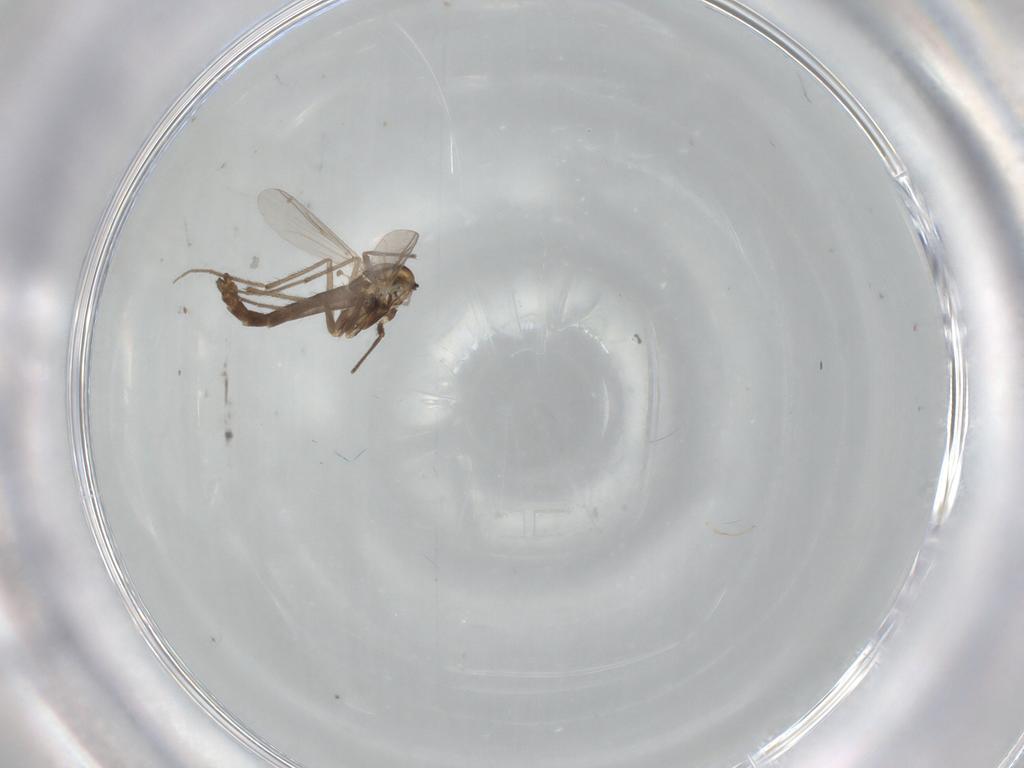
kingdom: Animalia
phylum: Arthropoda
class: Insecta
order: Diptera
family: Chironomidae
